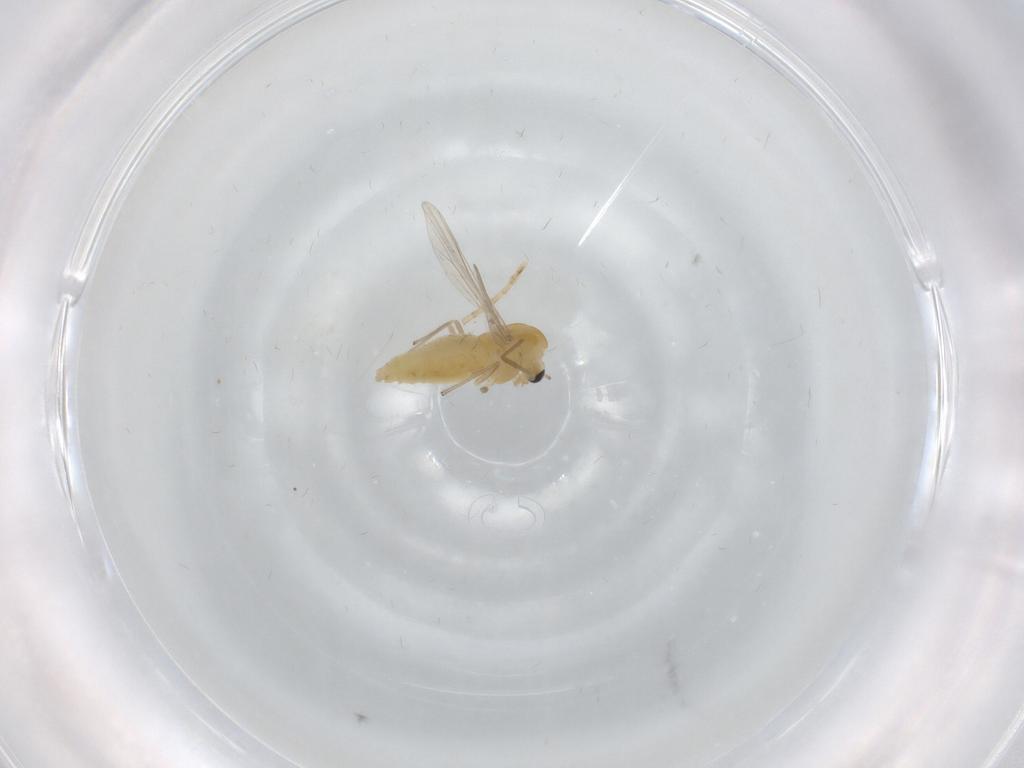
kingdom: Animalia
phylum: Arthropoda
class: Insecta
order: Diptera
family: Chironomidae
